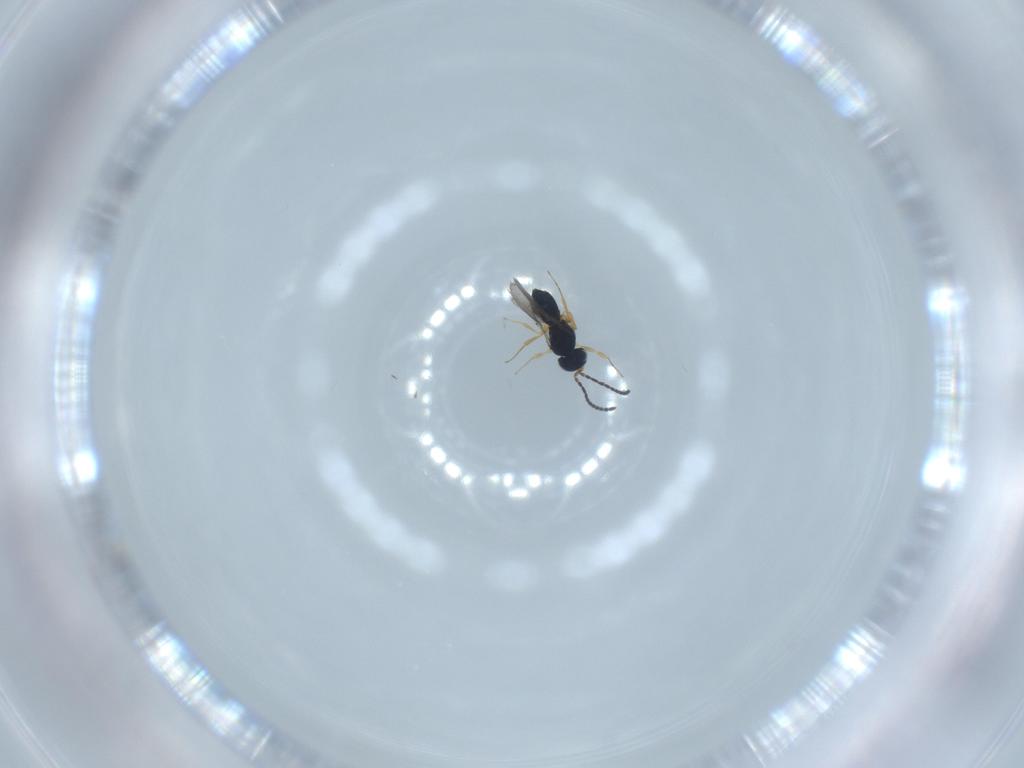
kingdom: Animalia
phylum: Arthropoda
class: Insecta
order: Hymenoptera
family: Scelionidae
